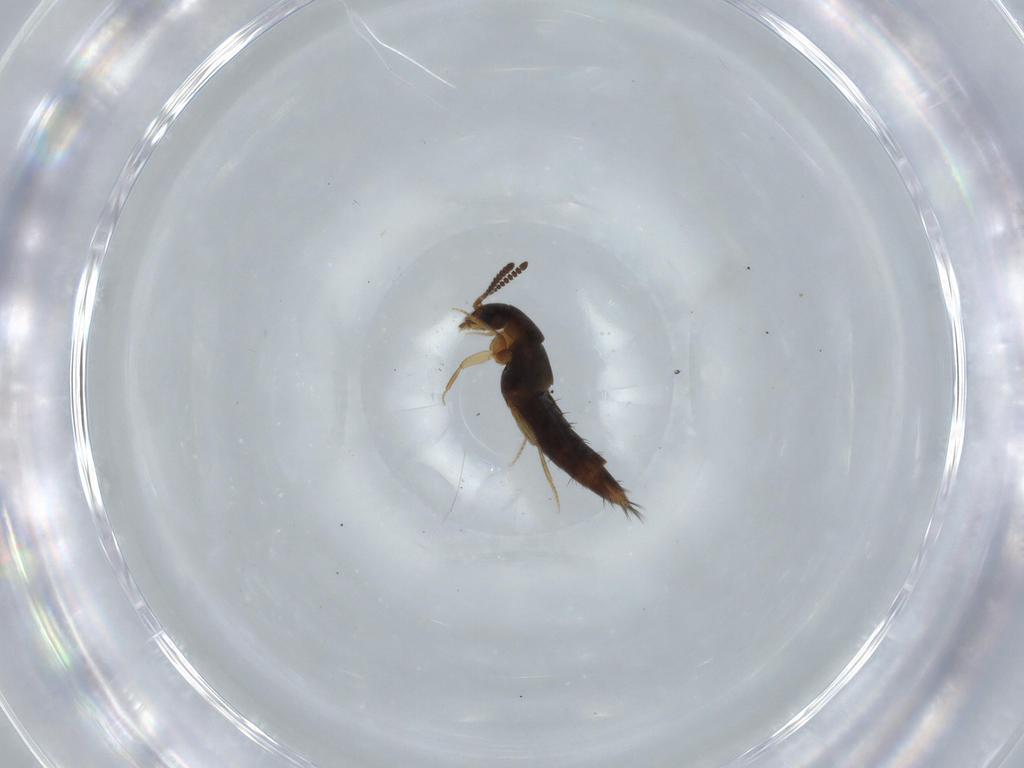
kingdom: Animalia
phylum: Arthropoda
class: Insecta
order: Coleoptera
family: Staphylinidae
